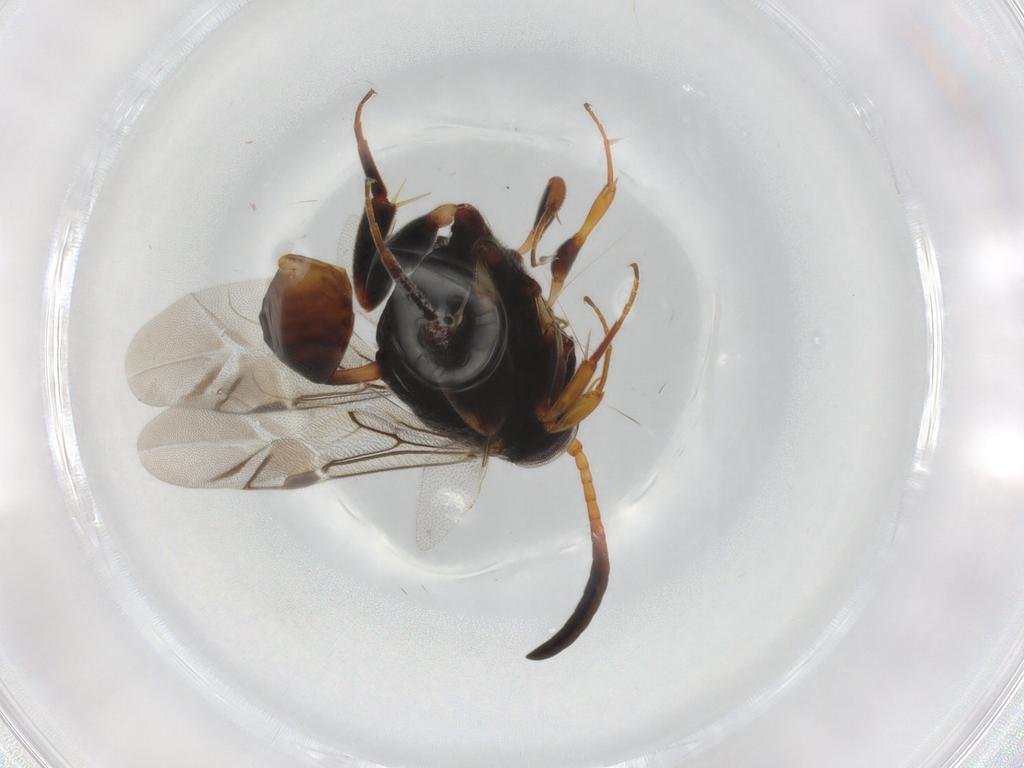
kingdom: Animalia
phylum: Arthropoda
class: Insecta
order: Hymenoptera
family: Evaniidae
